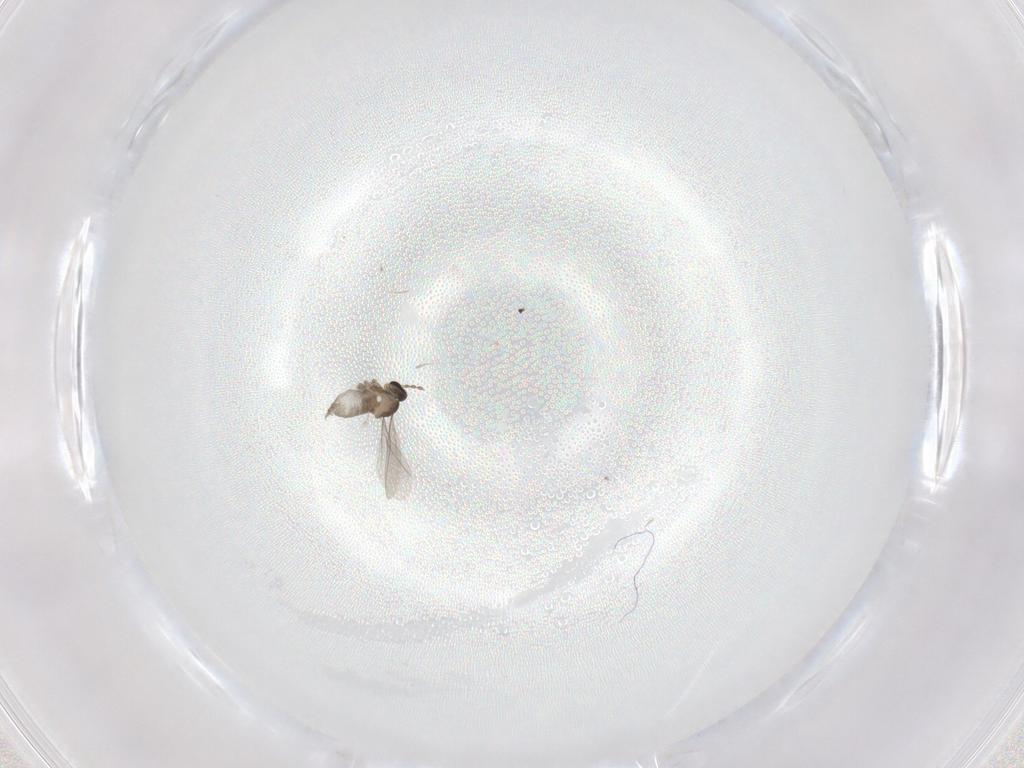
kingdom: Animalia
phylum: Arthropoda
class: Insecta
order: Diptera
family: Cecidomyiidae
